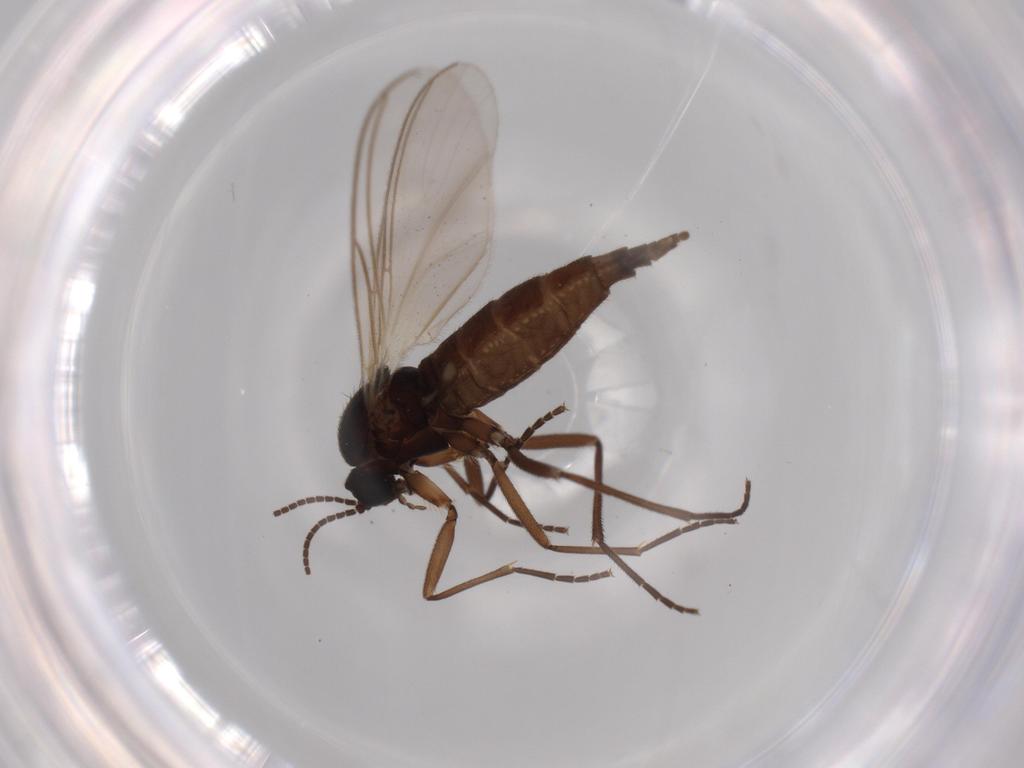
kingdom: Animalia
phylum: Arthropoda
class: Insecta
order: Diptera
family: Sciaridae
